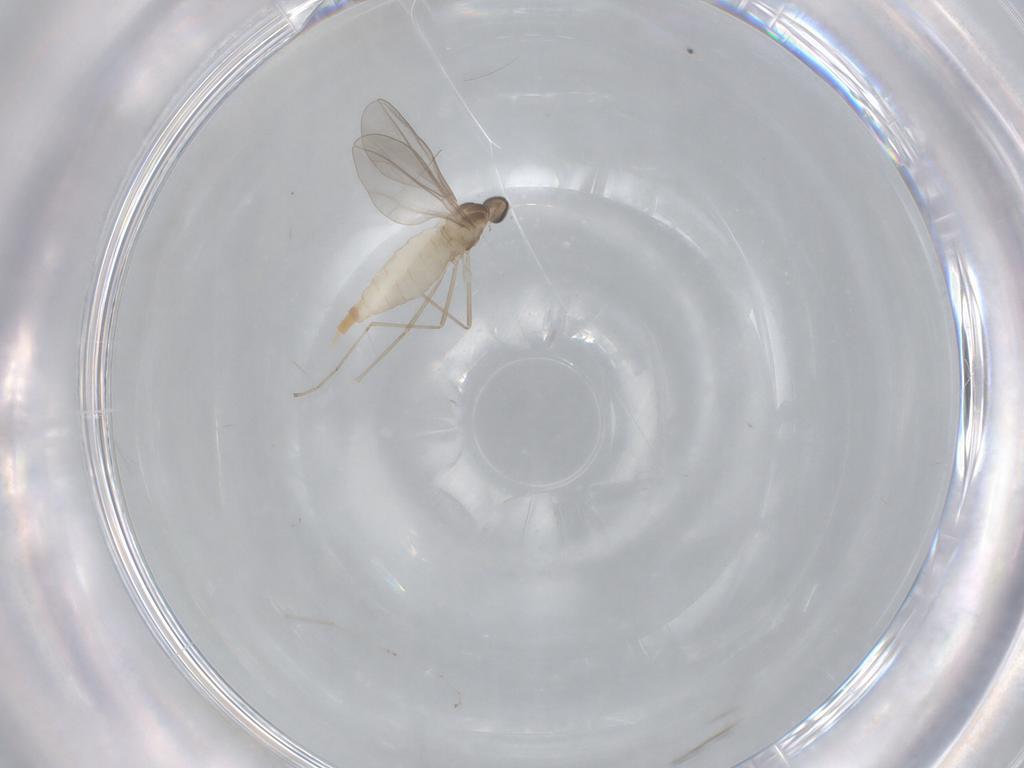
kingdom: Animalia
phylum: Arthropoda
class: Insecta
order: Diptera
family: Cecidomyiidae
